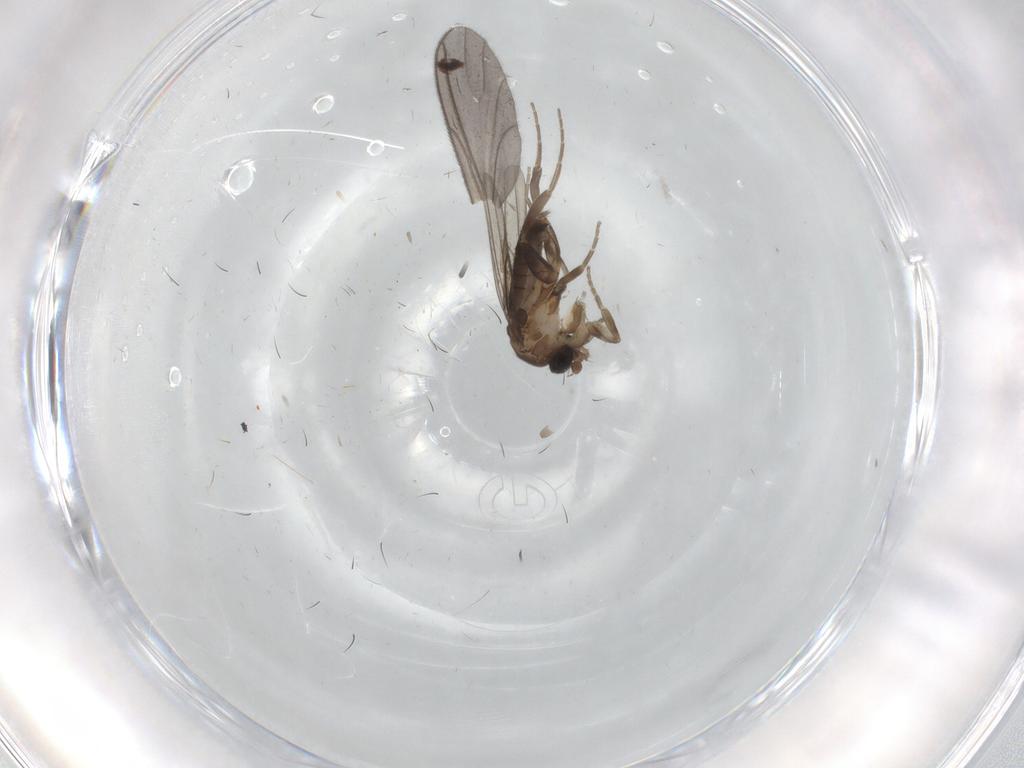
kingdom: Animalia
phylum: Arthropoda
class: Insecta
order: Diptera
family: Phoridae
